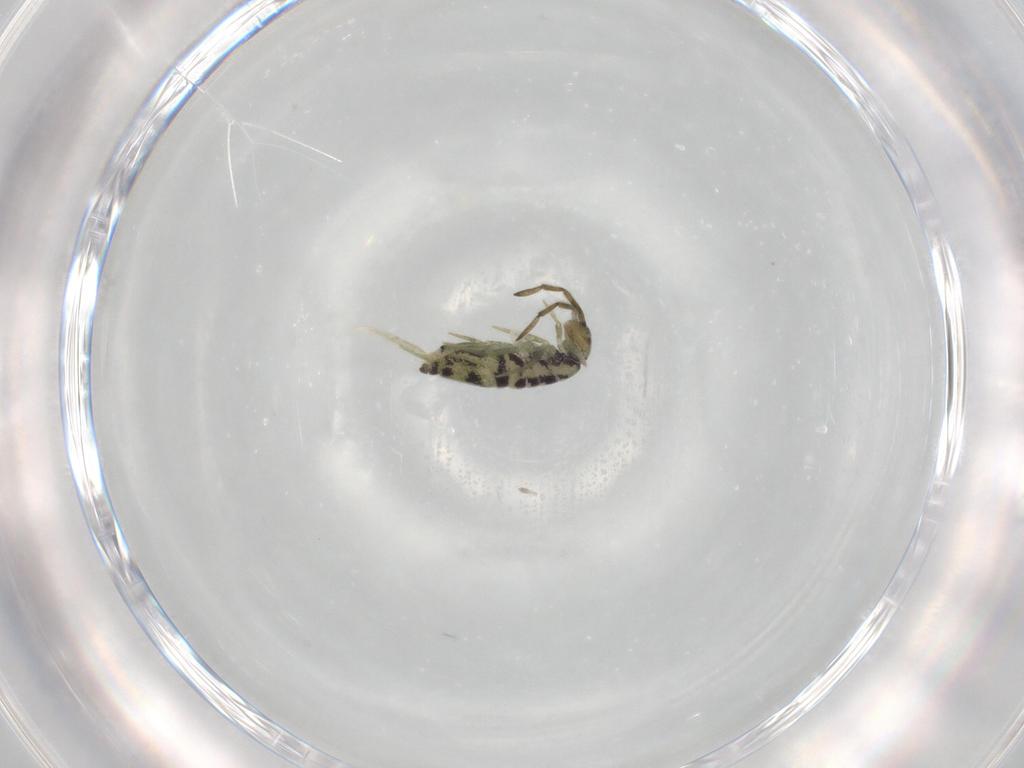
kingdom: Animalia
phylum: Arthropoda
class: Collembola
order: Entomobryomorpha
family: Entomobryidae
